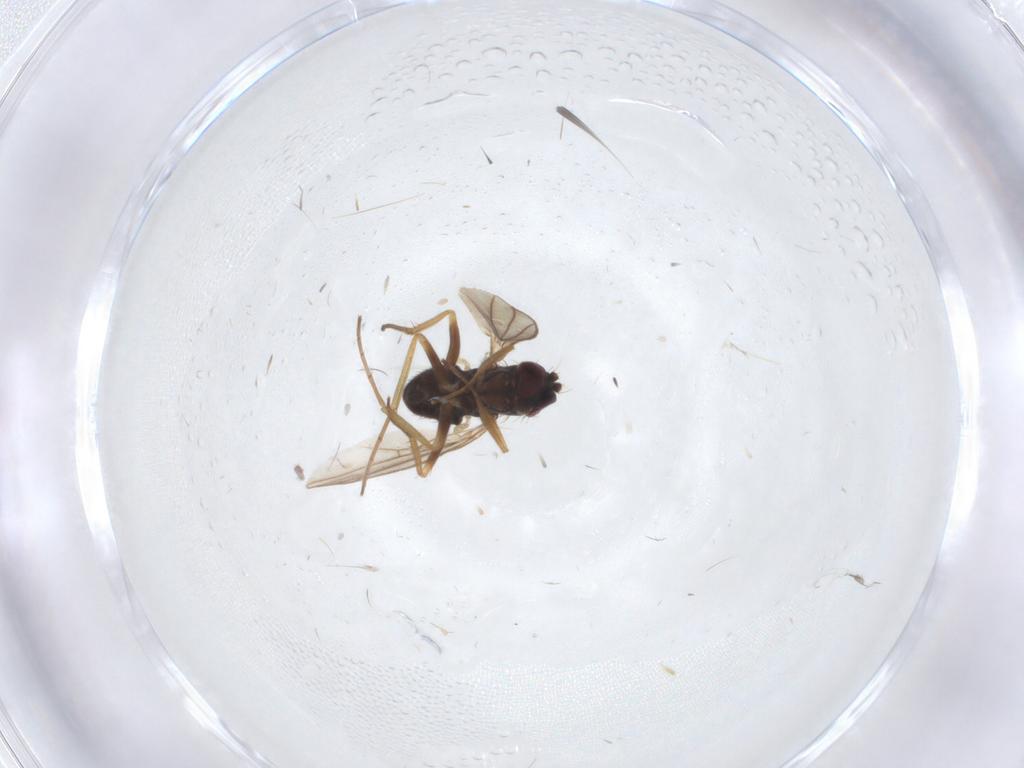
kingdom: Animalia
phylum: Arthropoda
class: Insecta
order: Diptera
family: Dolichopodidae
